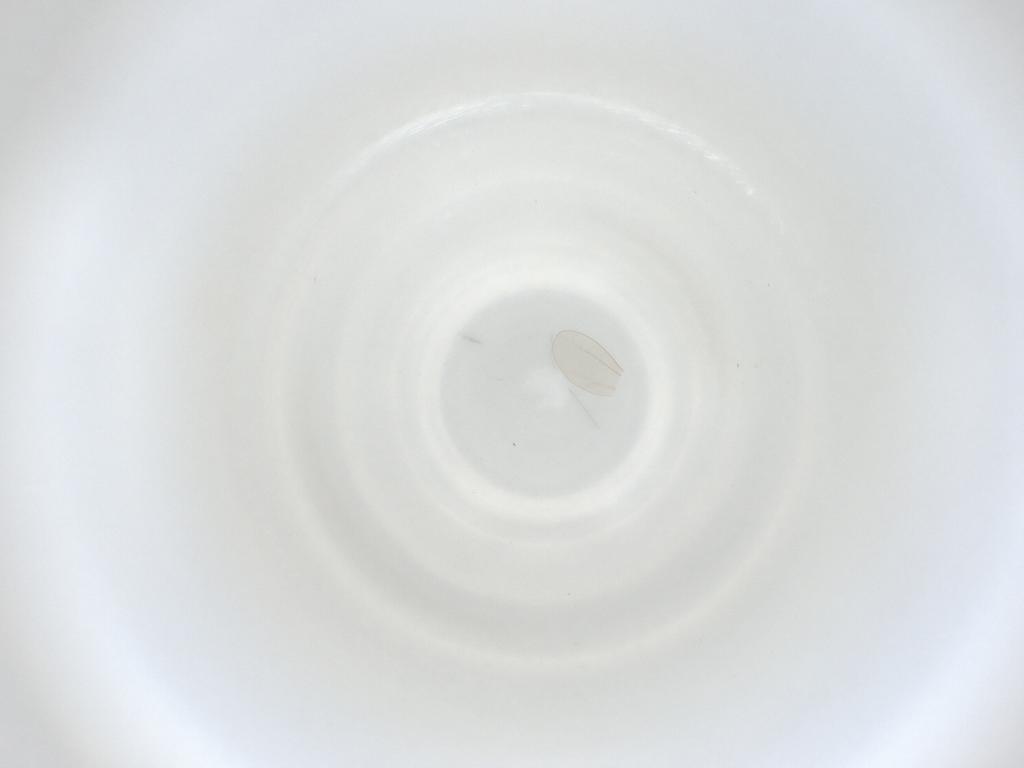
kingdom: Animalia
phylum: Arthropoda
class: Insecta
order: Diptera
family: Cecidomyiidae
